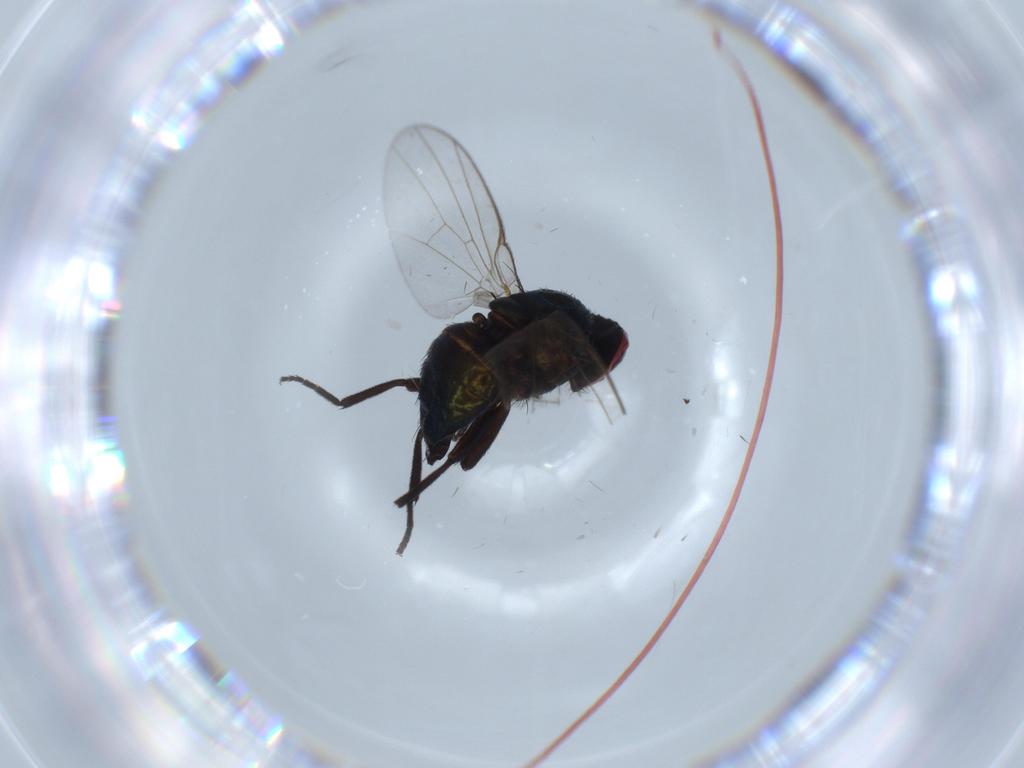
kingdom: Animalia
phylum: Arthropoda
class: Insecta
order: Diptera
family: Agromyzidae
